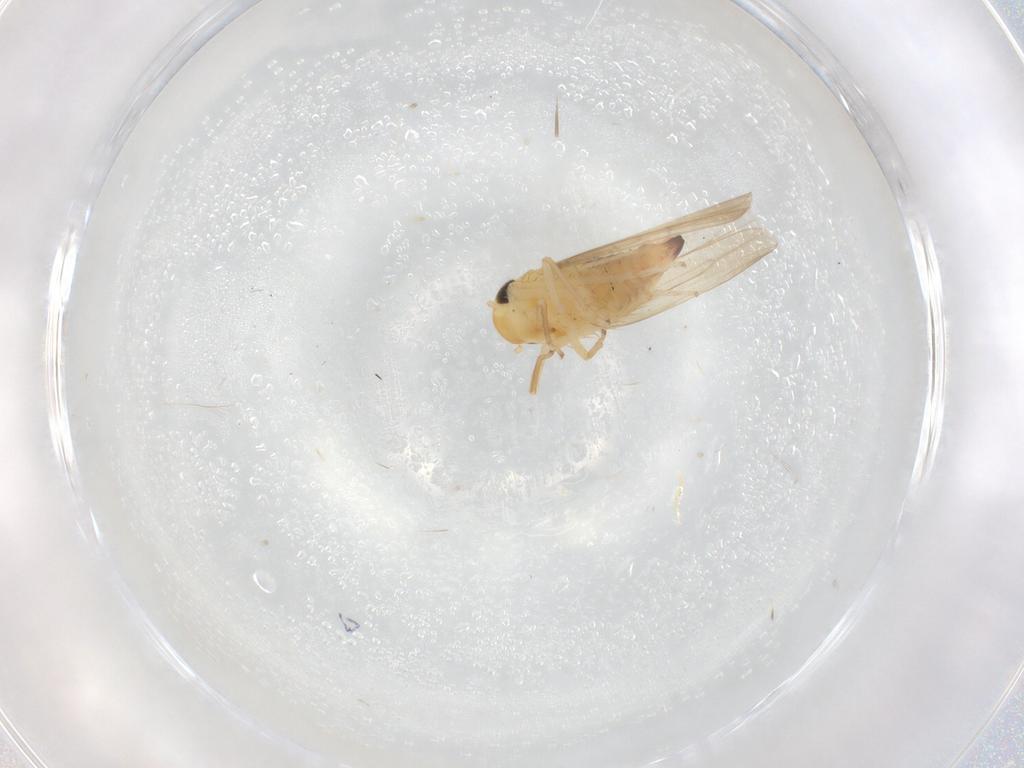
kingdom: Animalia
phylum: Arthropoda
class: Insecta
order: Hemiptera
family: Cicadellidae
